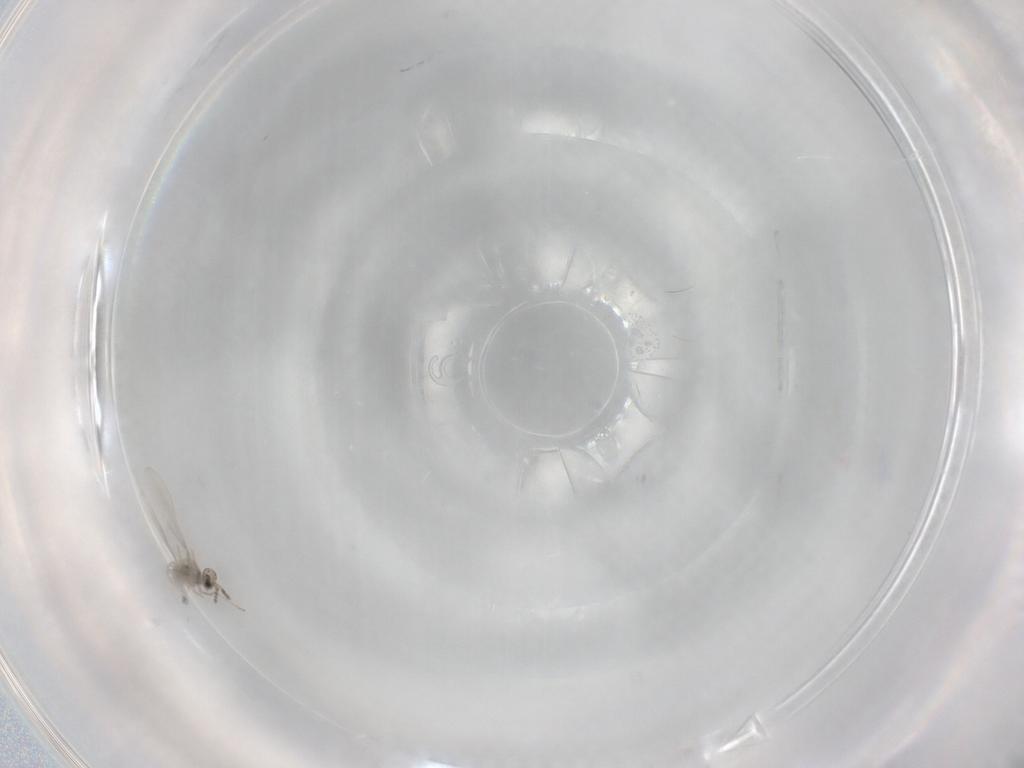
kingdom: Animalia
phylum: Arthropoda
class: Insecta
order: Diptera
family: Cecidomyiidae
